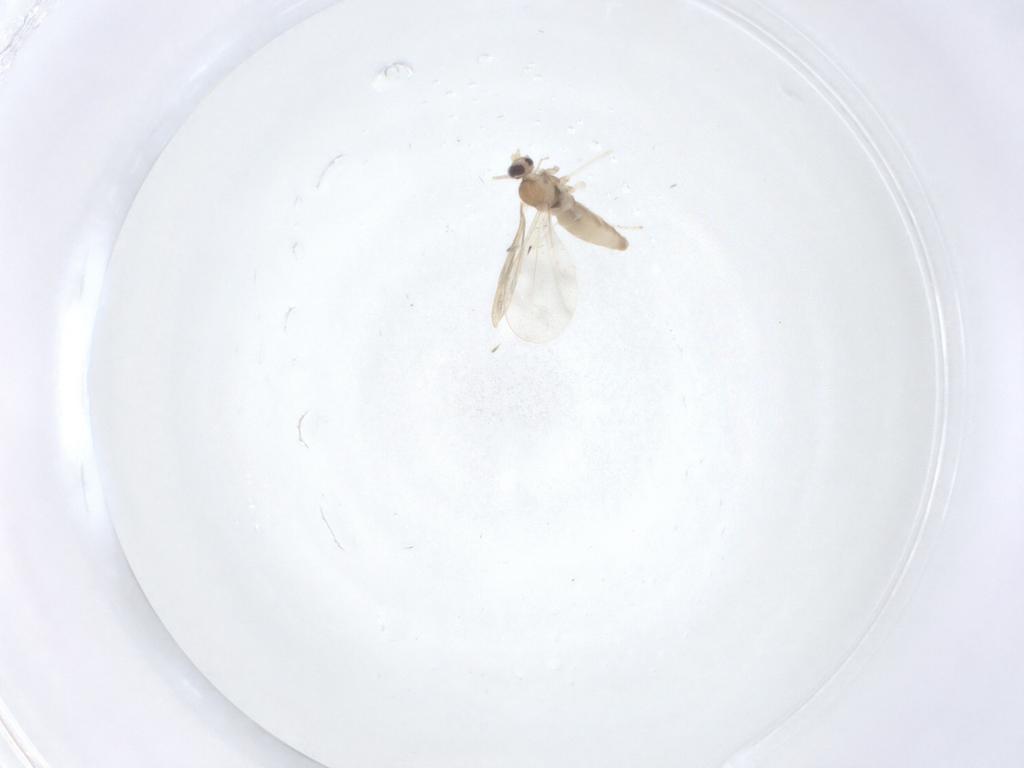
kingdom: Animalia
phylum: Arthropoda
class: Insecta
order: Diptera
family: Cecidomyiidae
